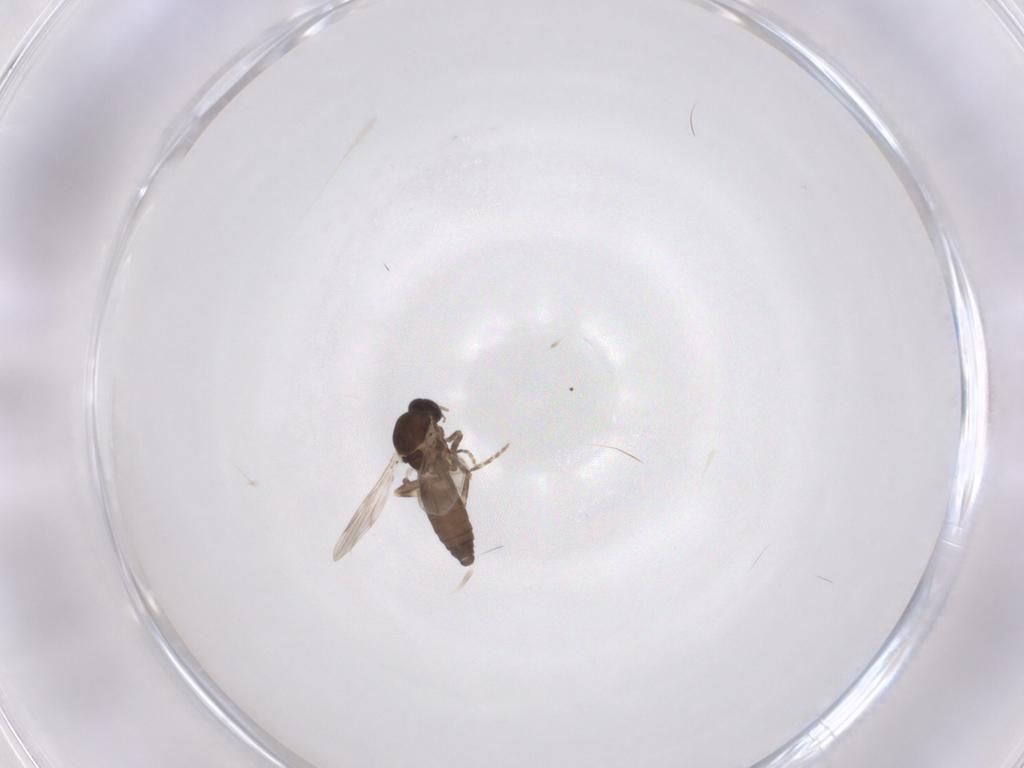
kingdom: Animalia
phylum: Arthropoda
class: Insecta
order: Diptera
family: Ceratopogonidae
